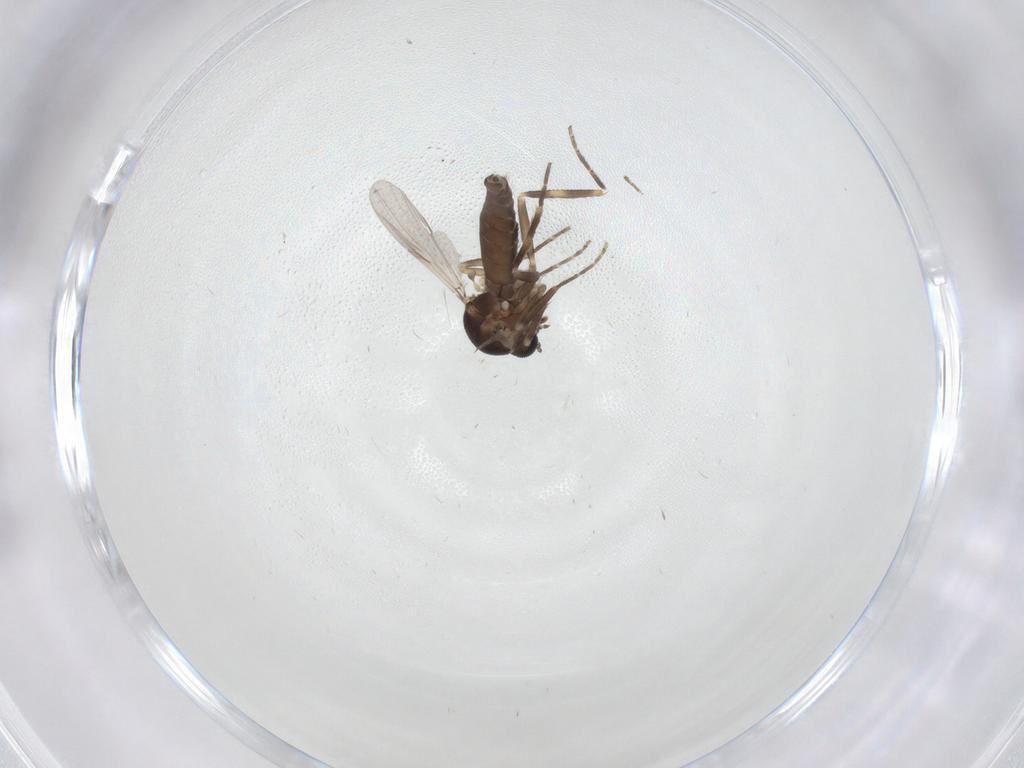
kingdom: Animalia
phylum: Arthropoda
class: Insecta
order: Diptera
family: Ceratopogonidae
